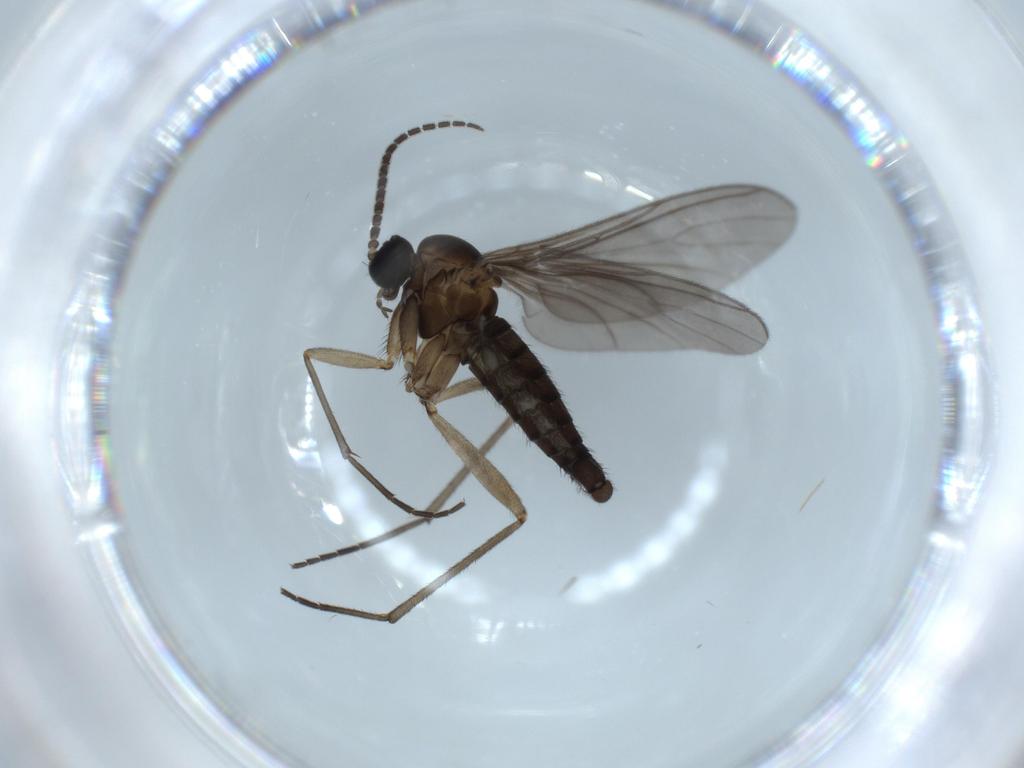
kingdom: Animalia
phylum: Arthropoda
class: Insecta
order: Diptera
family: Sciaridae
